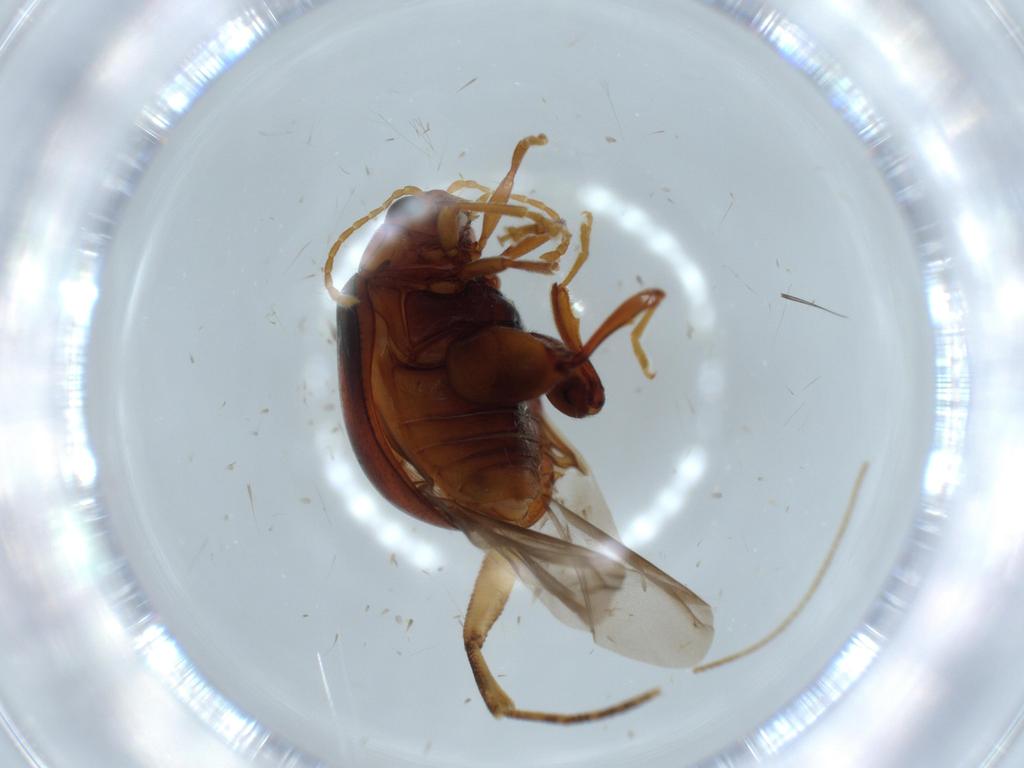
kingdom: Animalia
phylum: Arthropoda
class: Insecta
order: Coleoptera
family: Chrysomelidae
